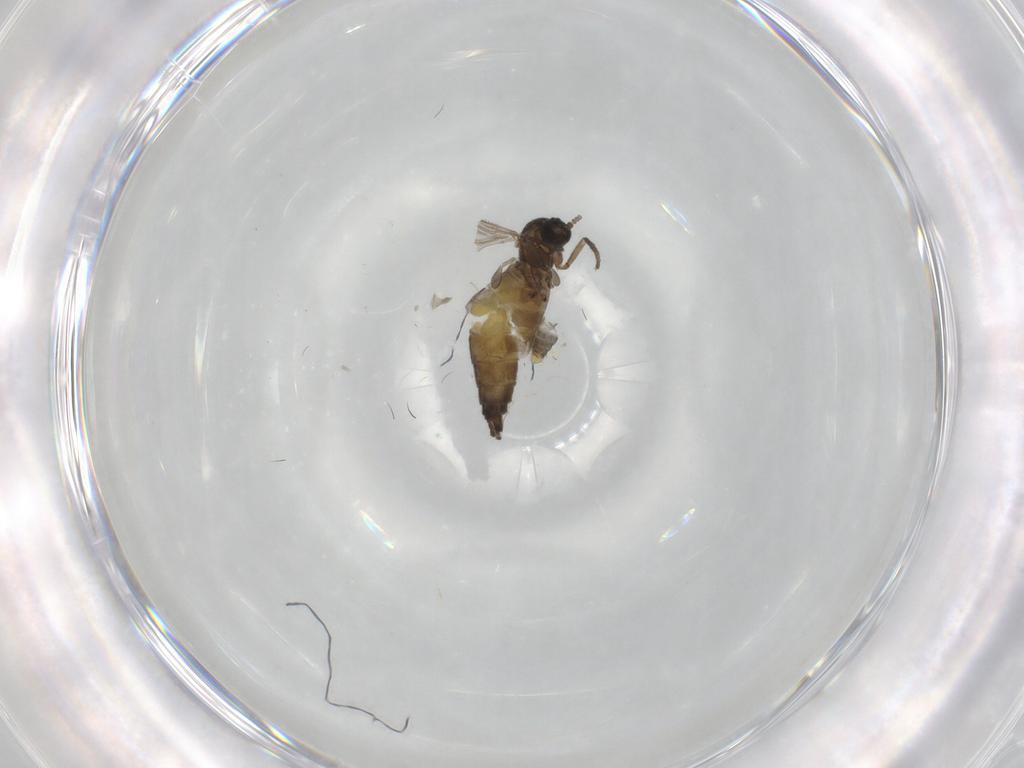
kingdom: Animalia
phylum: Arthropoda
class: Insecta
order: Diptera
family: Sciaridae
